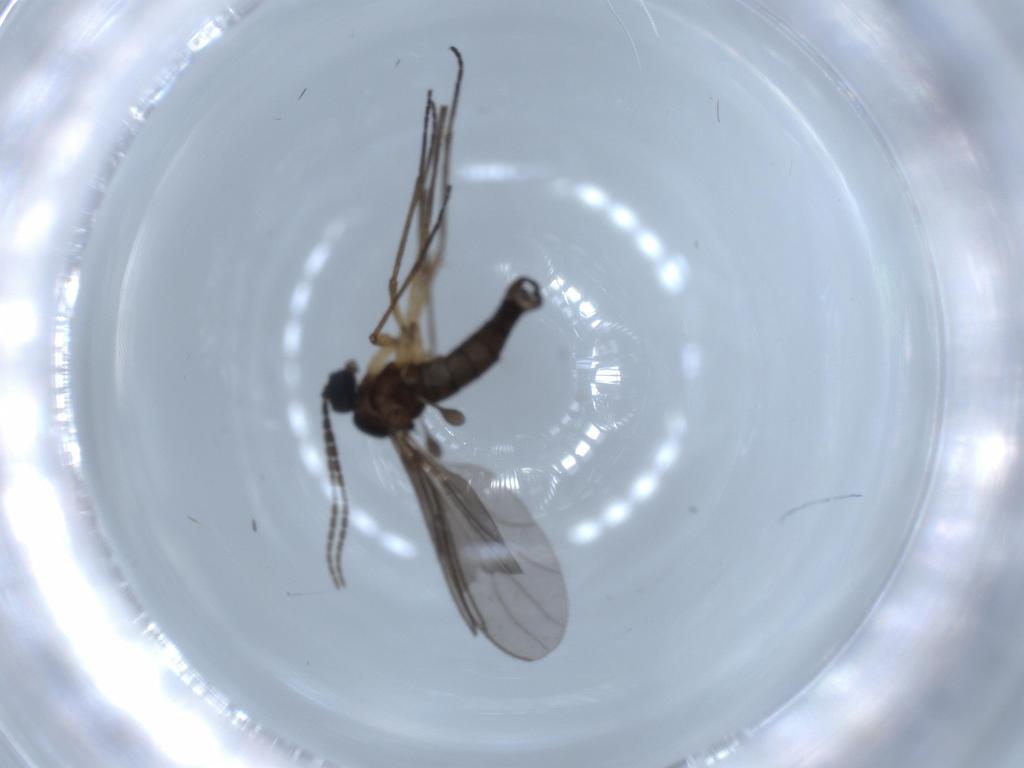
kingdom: Animalia
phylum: Arthropoda
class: Insecta
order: Diptera
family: Sciaridae
